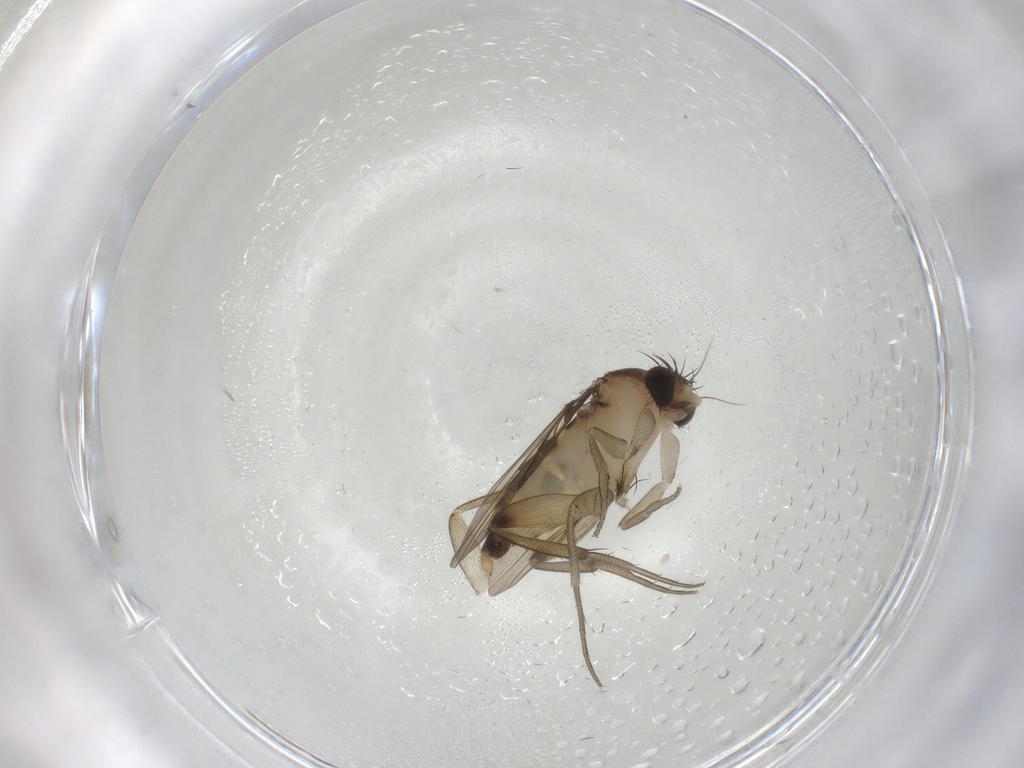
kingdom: Animalia
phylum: Arthropoda
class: Insecta
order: Diptera
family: Phoridae
